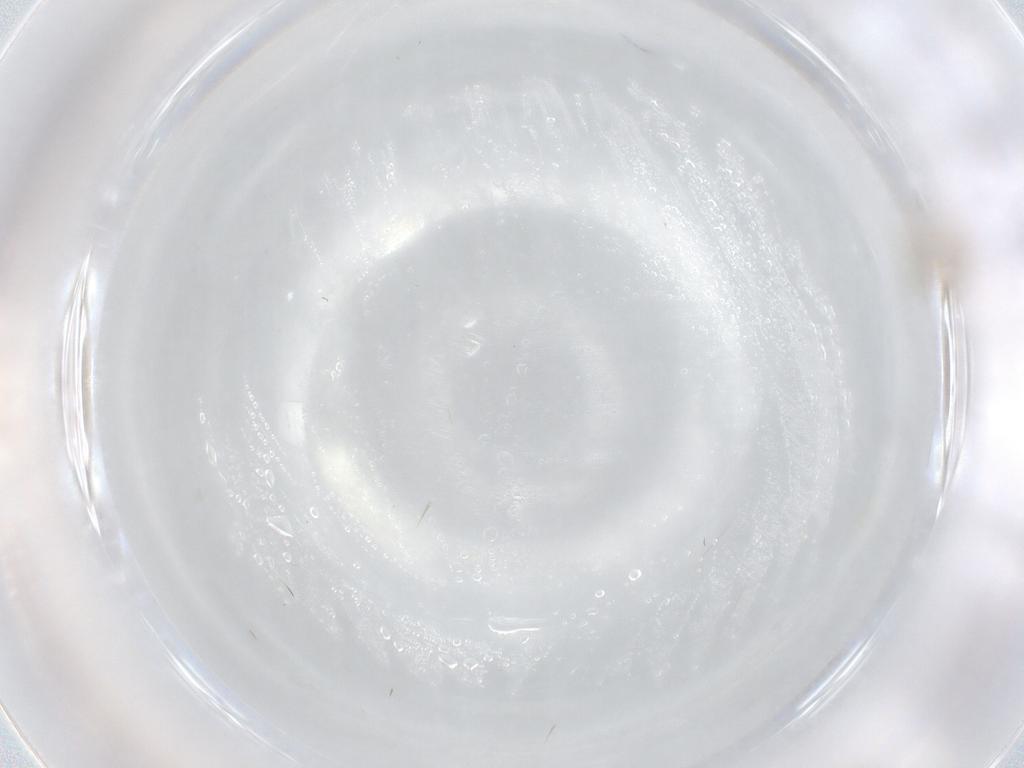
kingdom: Animalia
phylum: Arthropoda
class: Insecta
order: Diptera
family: Cecidomyiidae
